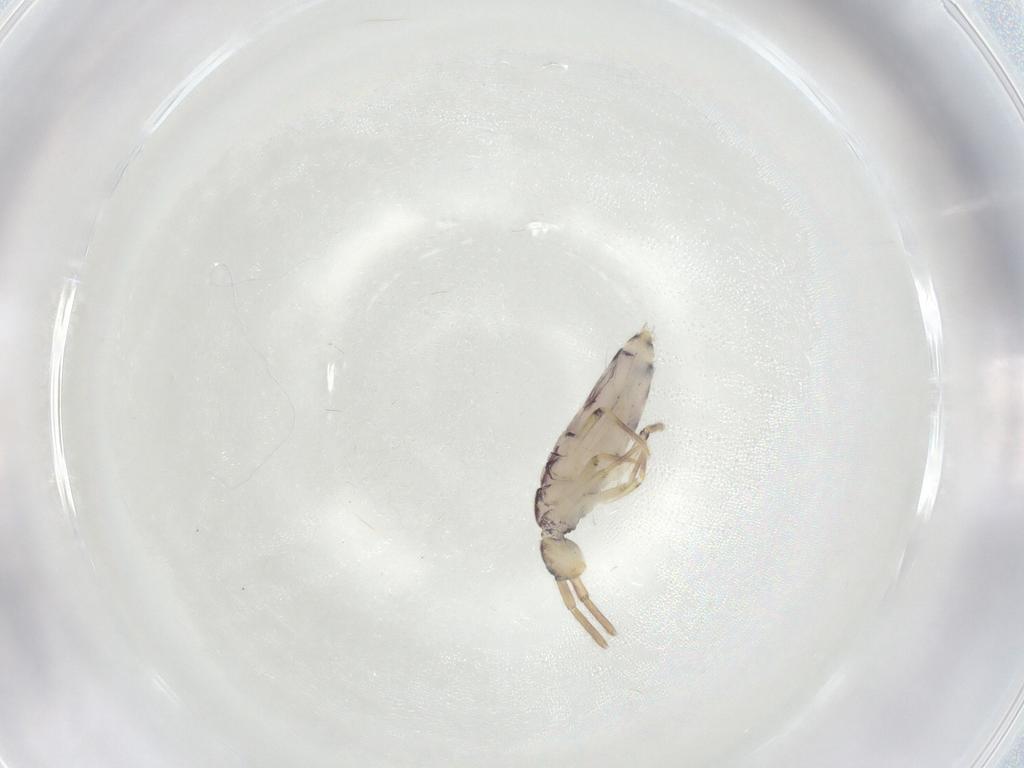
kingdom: Animalia
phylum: Arthropoda
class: Collembola
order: Entomobryomorpha
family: Entomobryidae
